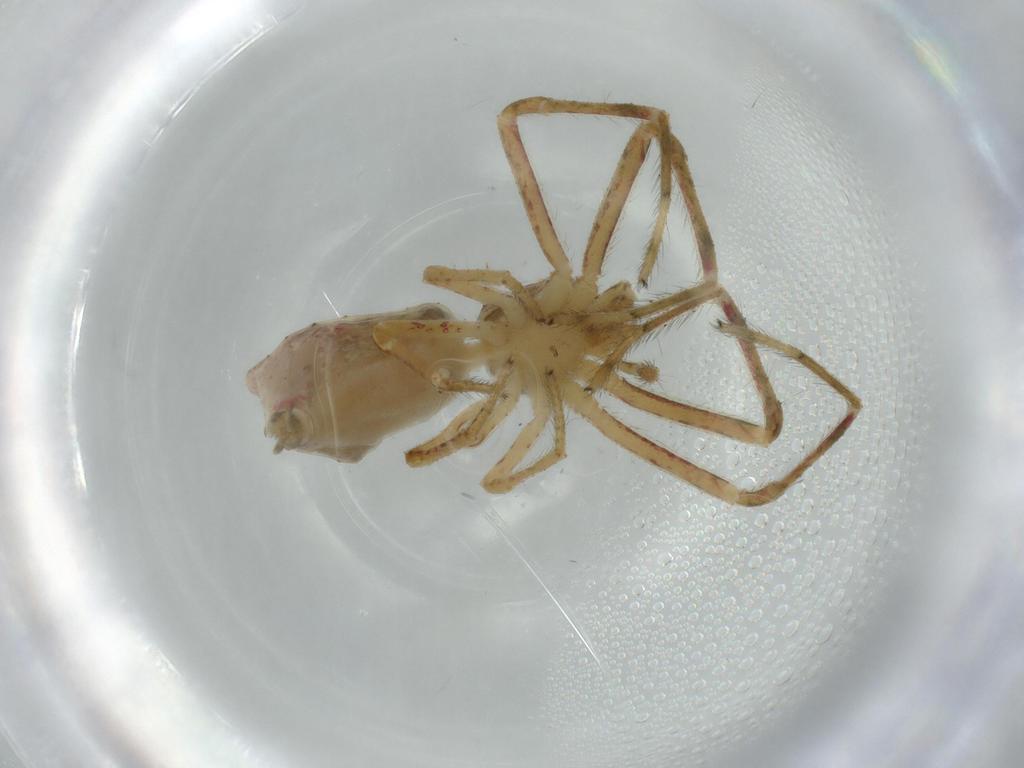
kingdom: Animalia
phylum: Arthropoda
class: Arachnida
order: Araneae
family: Thomisidae
